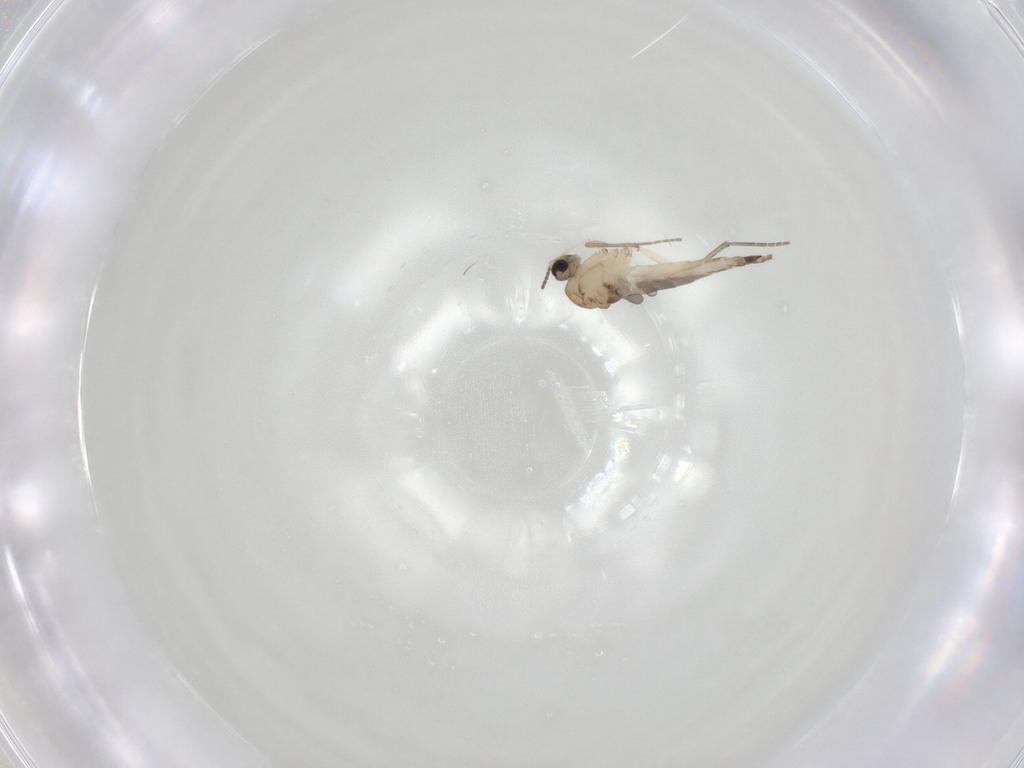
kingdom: Animalia
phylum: Arthropoda
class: Insecta
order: Diptera
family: Sciaridae
